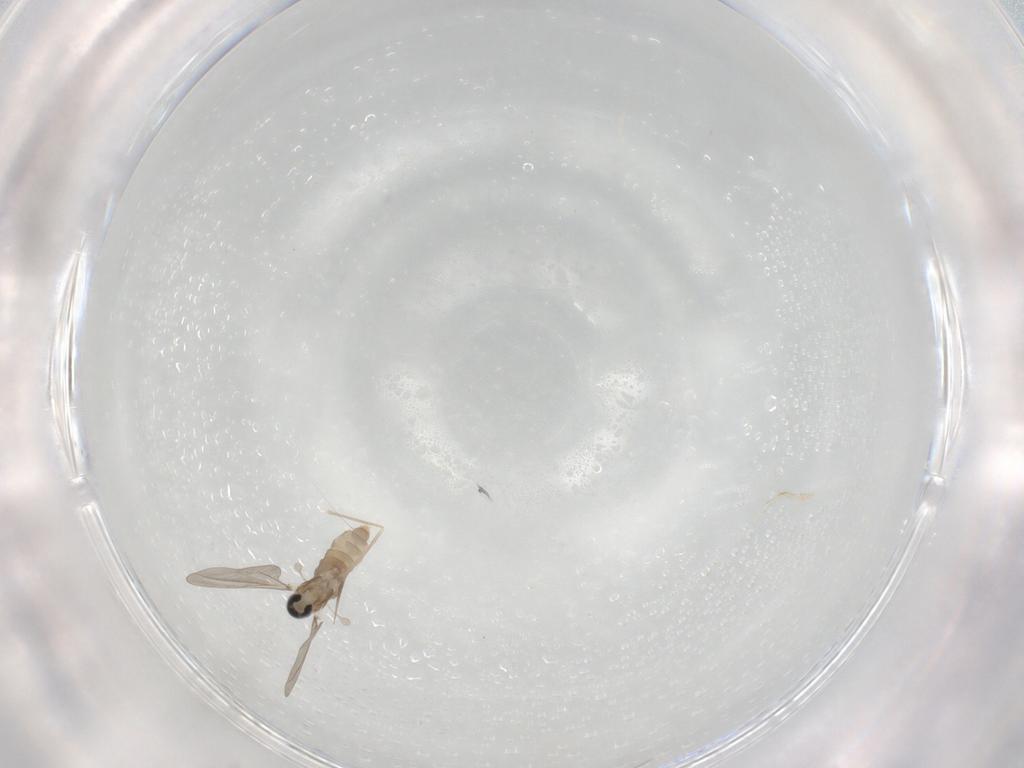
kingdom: Animalia
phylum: Arthropoda
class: Insecta
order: Diptera
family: Cecidomyiidae
